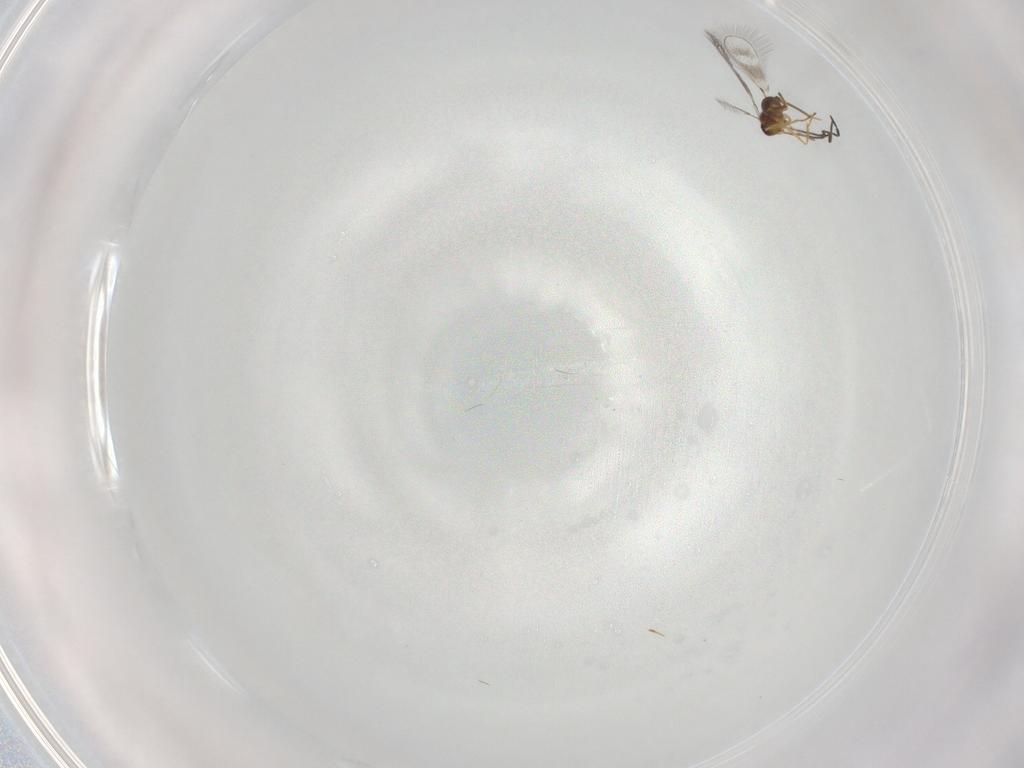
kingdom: Animalia
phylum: Arthropoda
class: Insecta
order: Hymenoptera
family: Mymaridae
